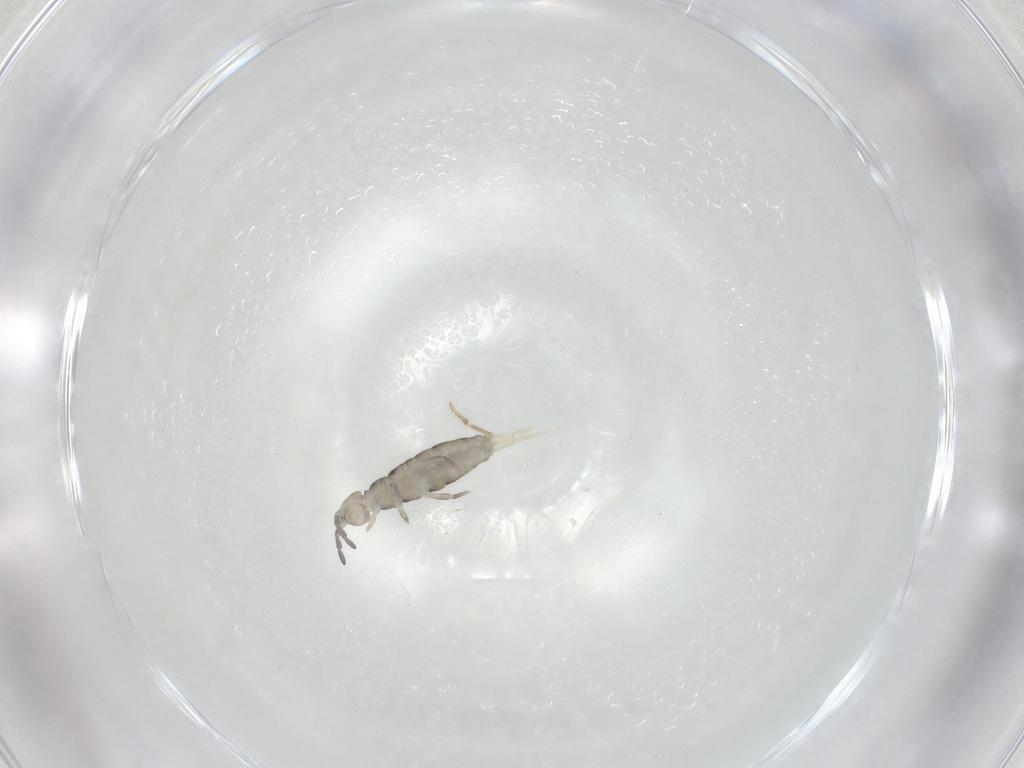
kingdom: Animalia
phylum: Arthropoda
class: Collembola
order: Entomobryomorpha
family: Isotomidae
